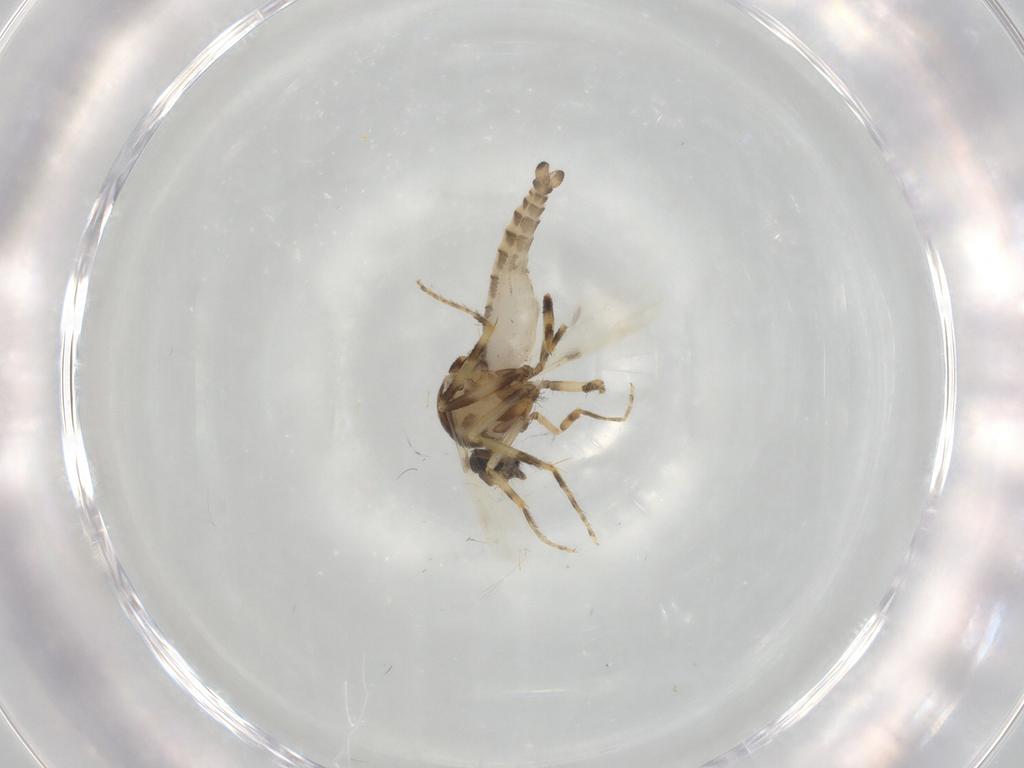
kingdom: Animalia
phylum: Arthropoda
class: Insecta
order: Diptera
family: Ceratopogonidae
